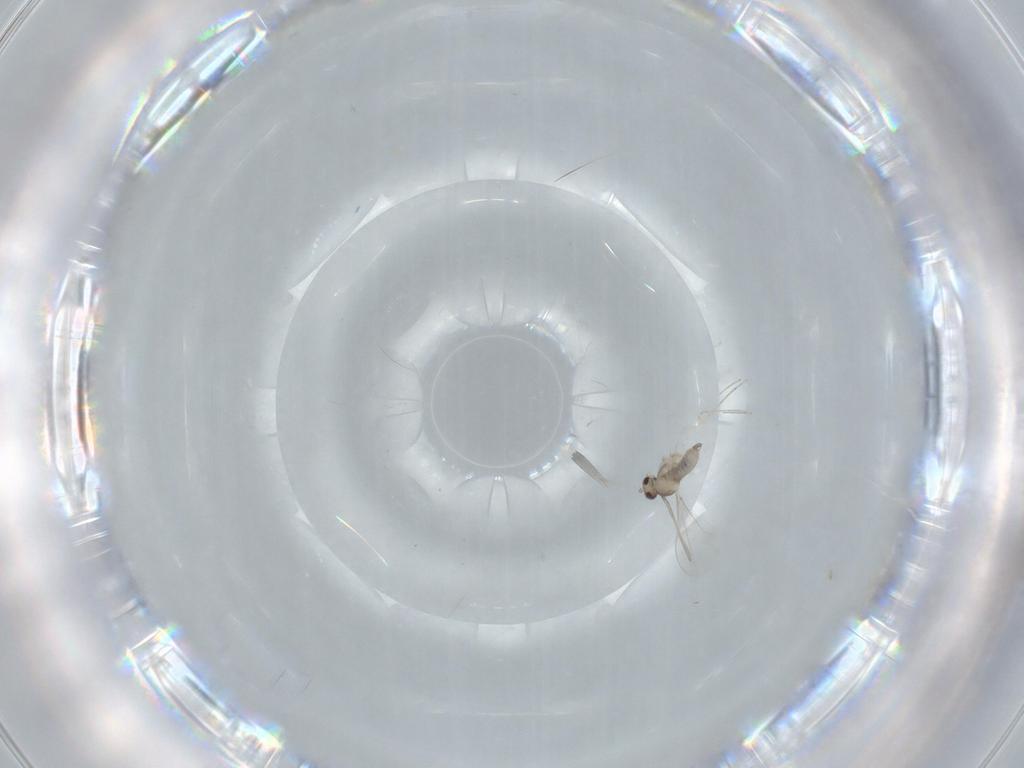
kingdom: Animalia
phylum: Arthropoda
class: Insecta
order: Diptera
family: Cecidomyiidae
